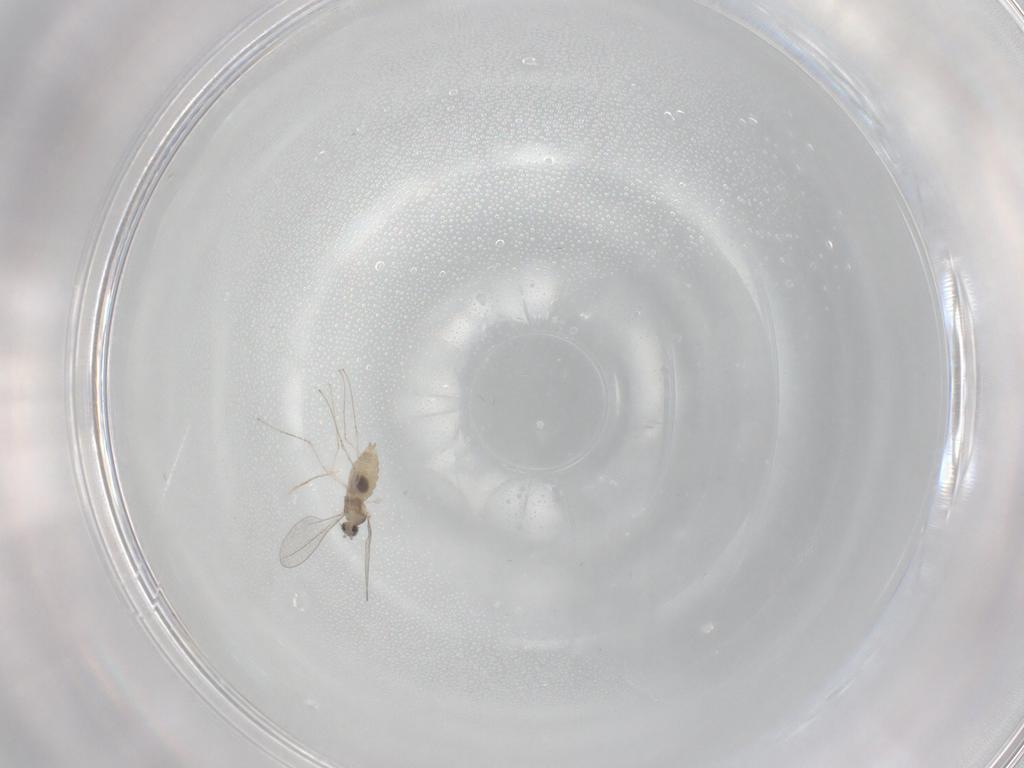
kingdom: Animalia
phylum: Arthropoda
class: Insecta
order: Diptera
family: Cecidomyiidae
